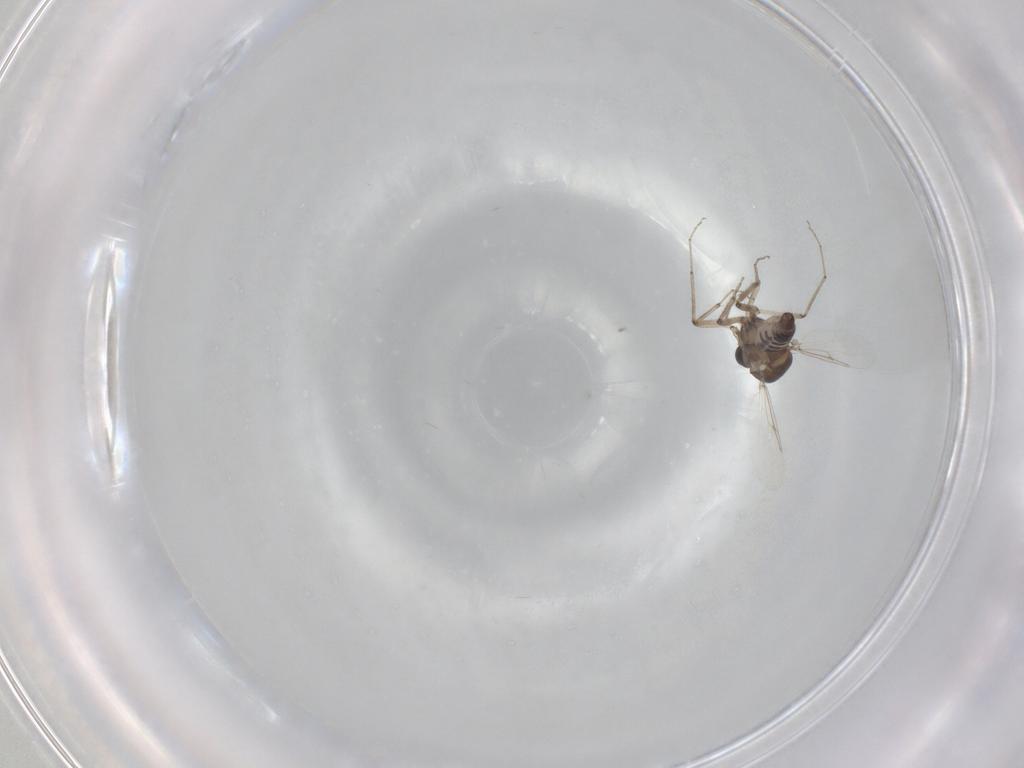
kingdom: Animalia
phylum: Arthropoda
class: Insecta
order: Diptera
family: Ceratopogonidae
